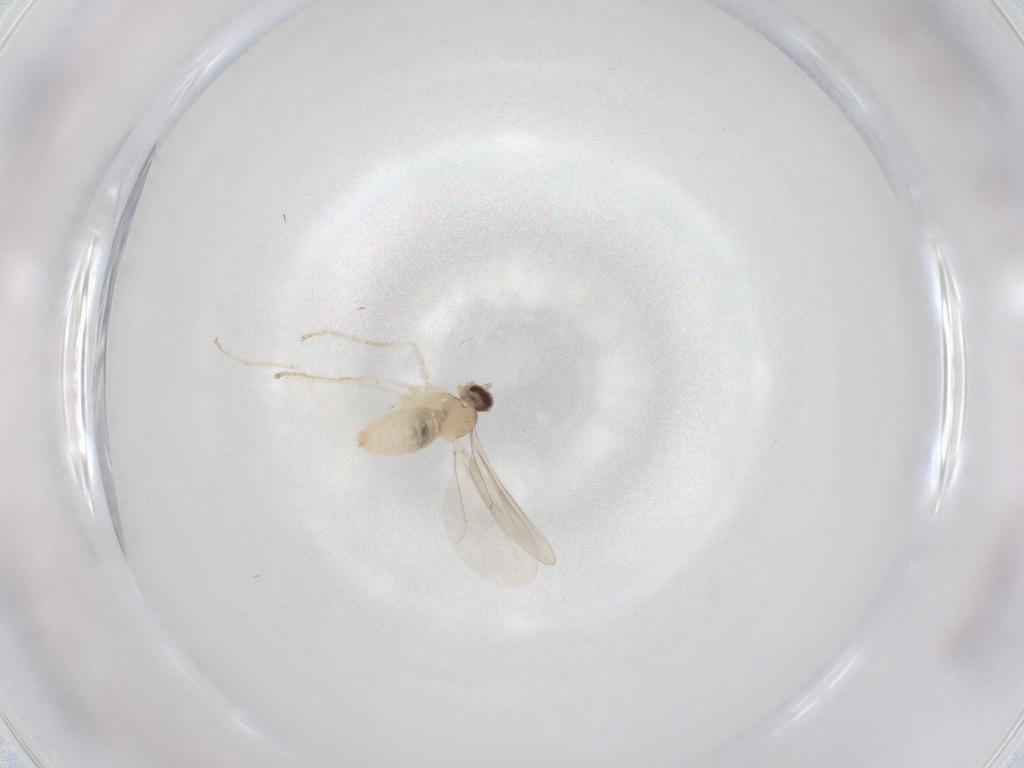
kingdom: Animalia
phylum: Arthropoda
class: Insecta
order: Diptera
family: Cecidomyiidae
